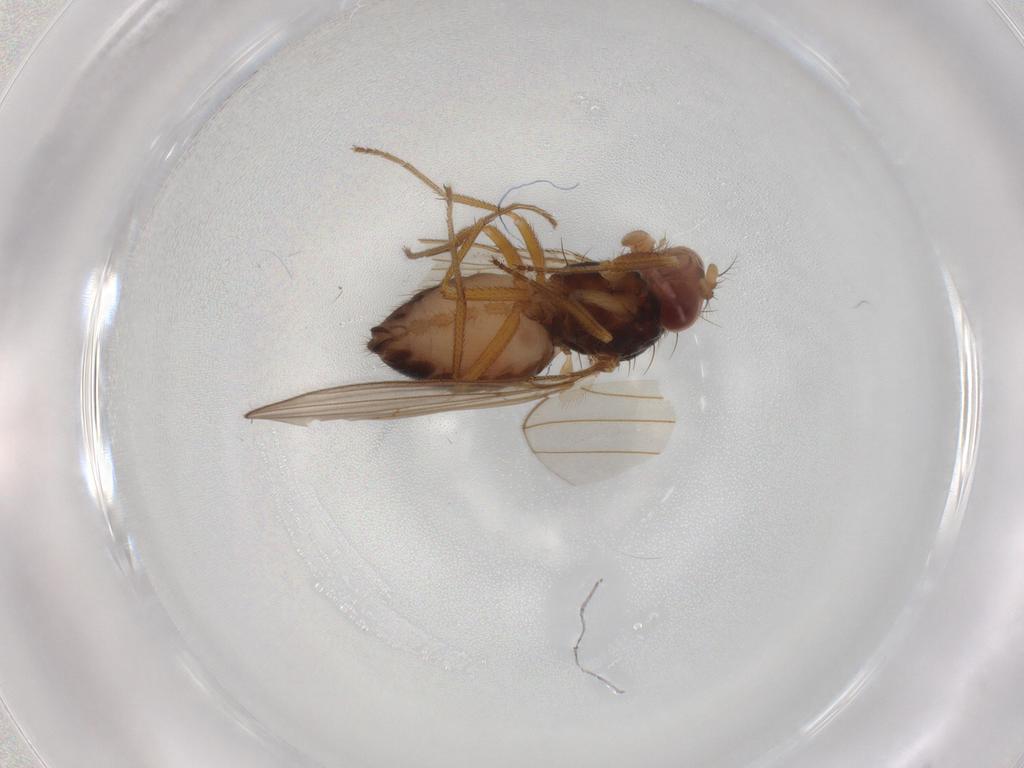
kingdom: Animalia
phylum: Arthropoda
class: Insecta
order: Diptera
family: Drosophilidae
